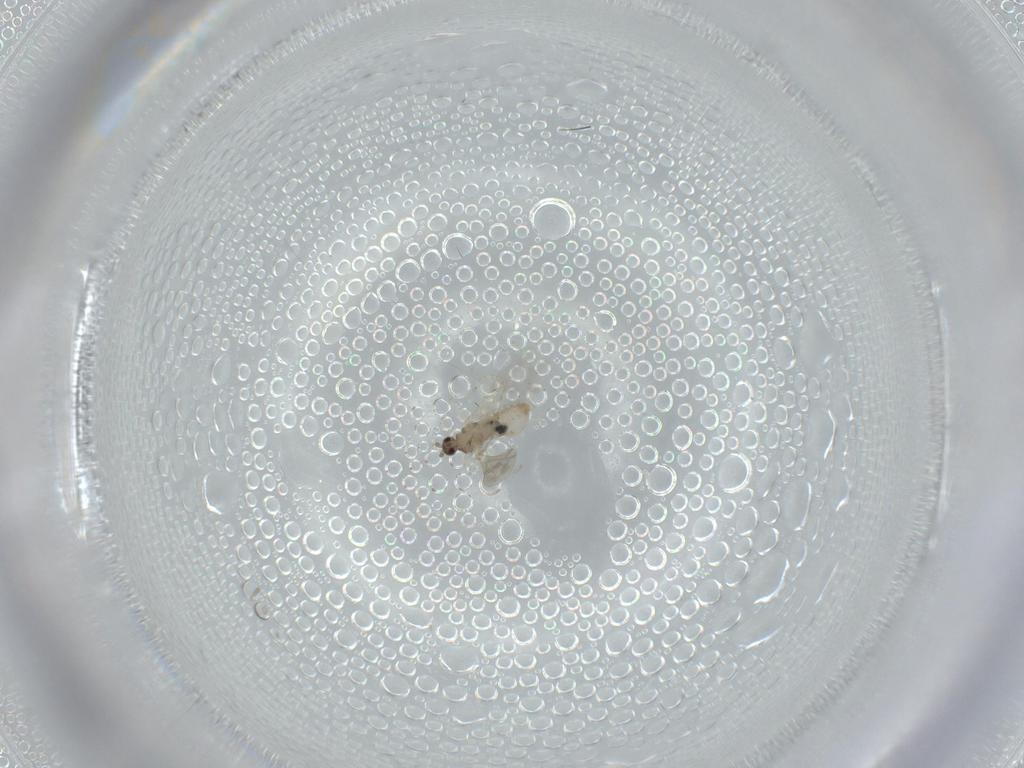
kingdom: Animalia
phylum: Arthropoda
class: Insecta
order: Diptera
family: Cecidomyiidae
